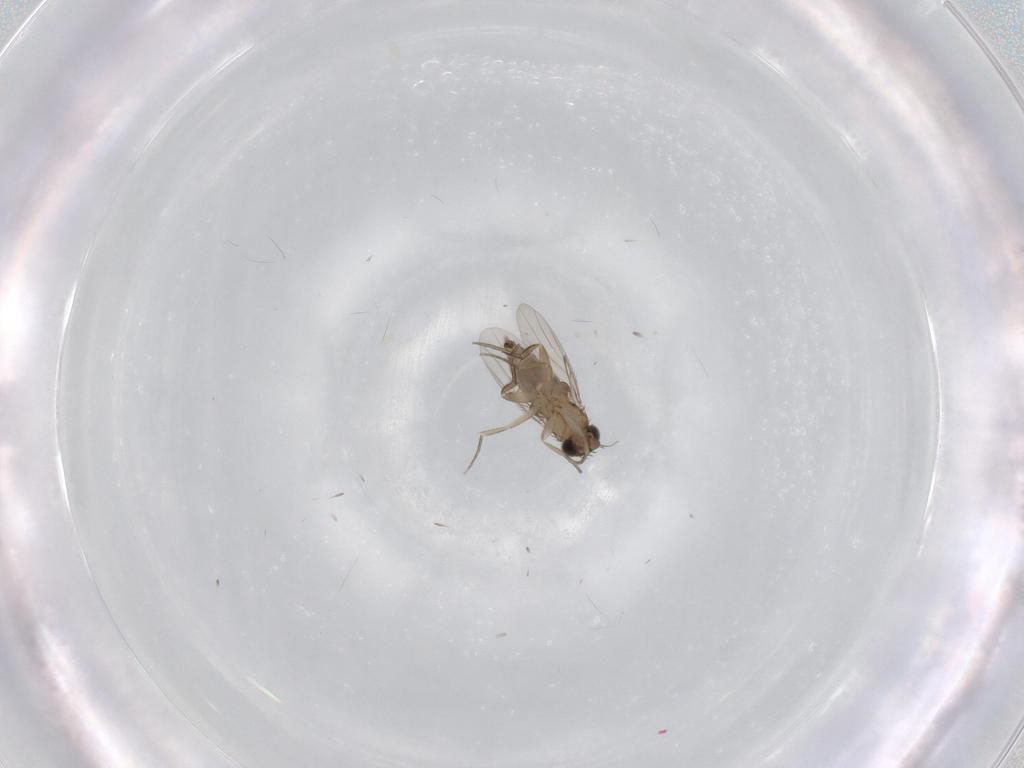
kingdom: Animalia
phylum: Arthropoda
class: Insecta
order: Diptera
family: Phoridae
